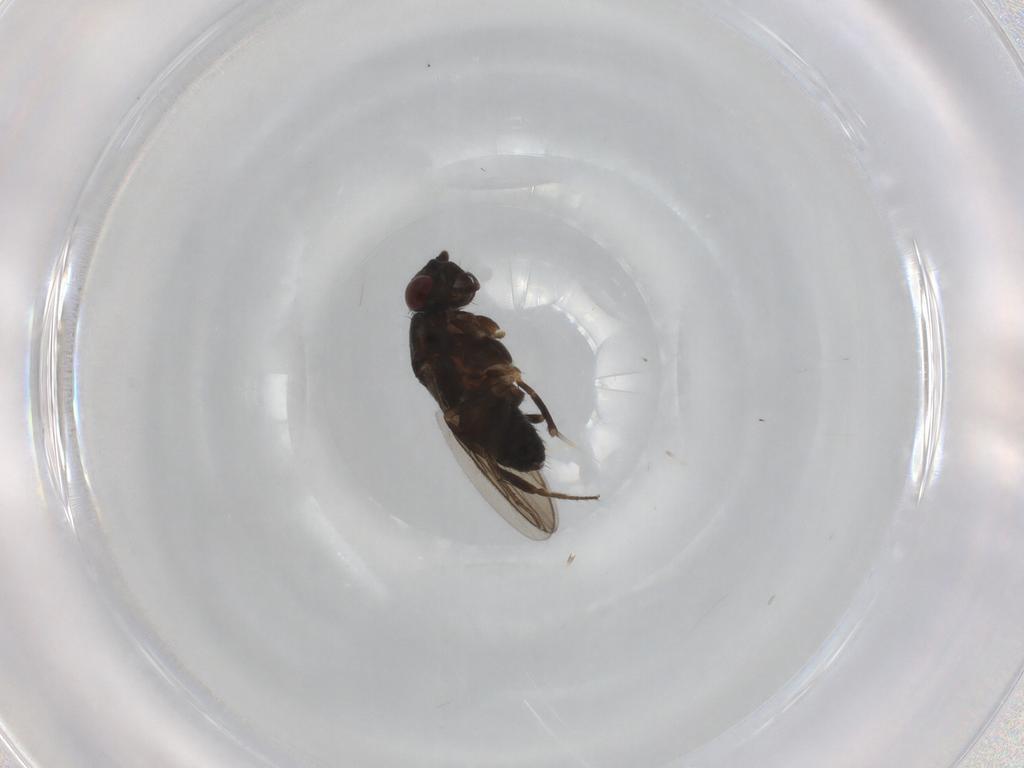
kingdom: Animalia
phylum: Arthropoda
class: Insecta
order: Diptera
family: Sphaeroceridae
